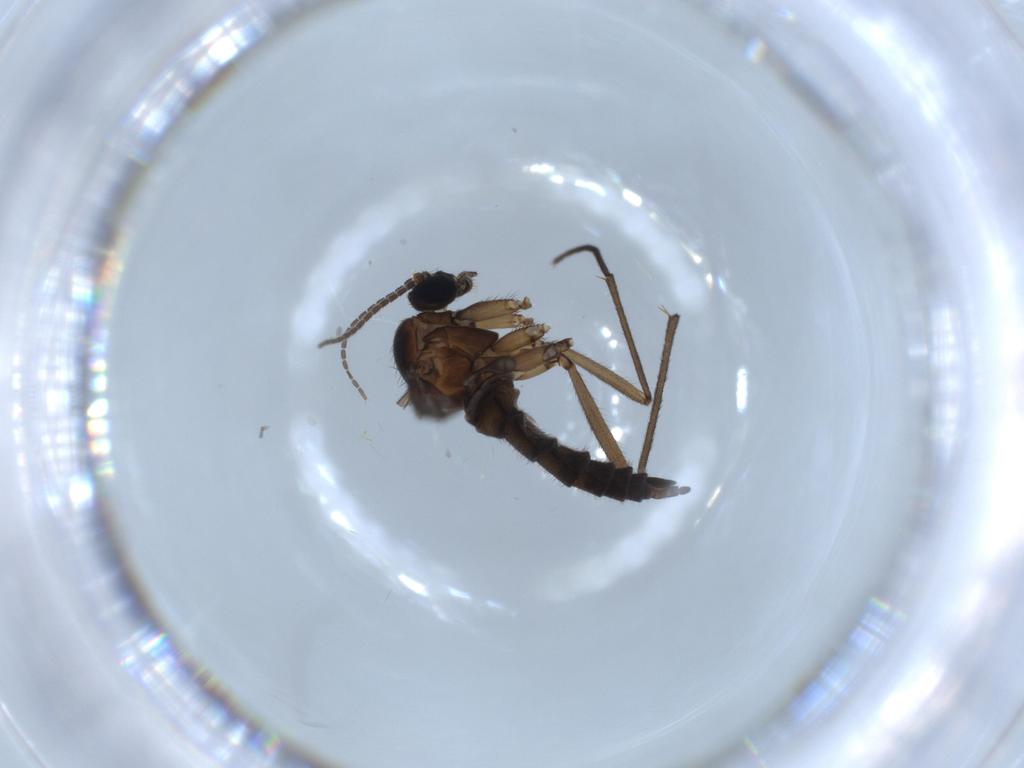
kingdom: Animalia
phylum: Arthropoda
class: Insecta
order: Diptera
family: Sciaridae
